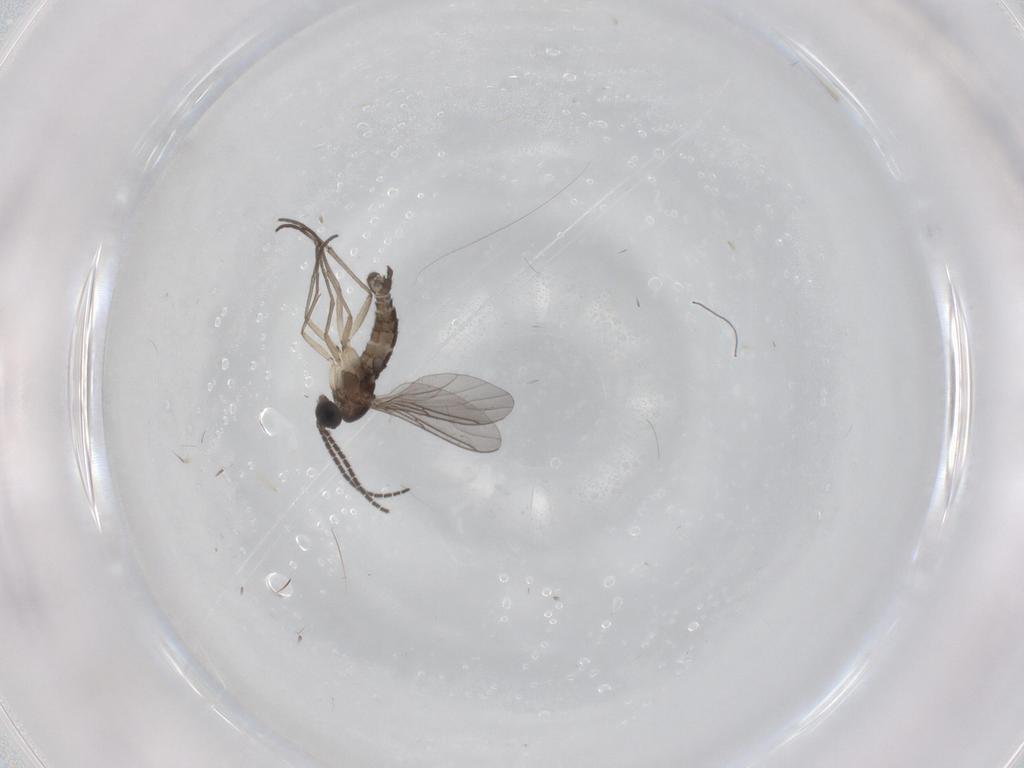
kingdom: Animalia
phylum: Arthropoda
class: Insecta
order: Diptera
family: Sciaridae
